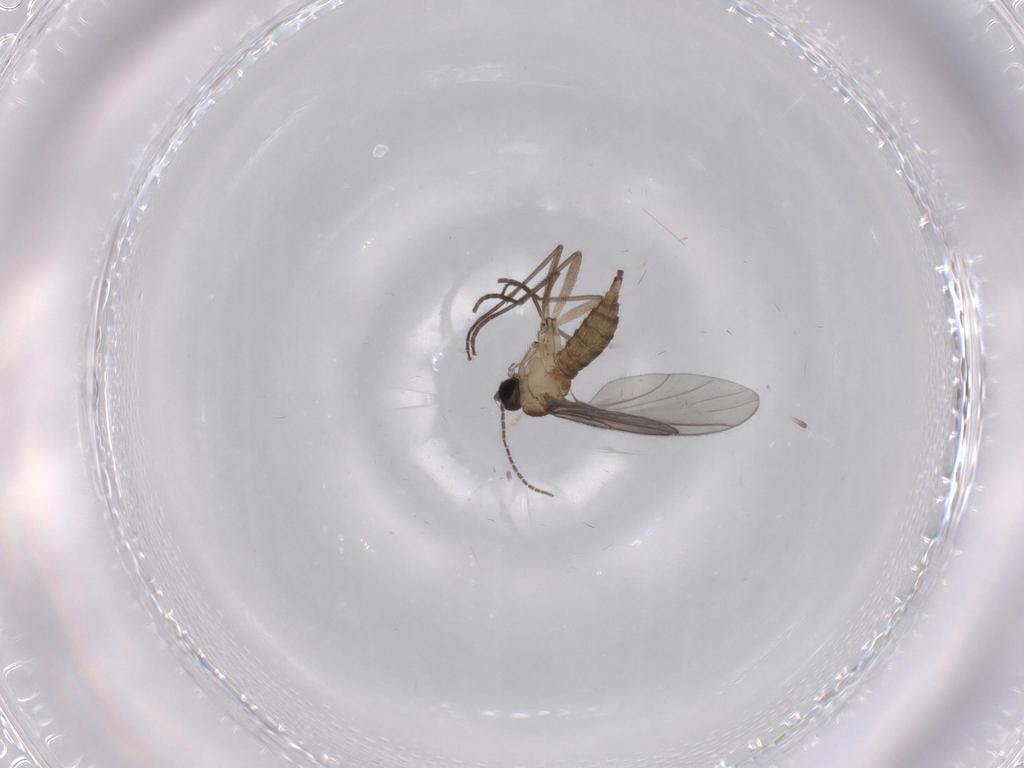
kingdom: Animalia
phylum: Arthropoda
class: Insecta
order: Diptera
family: Sciaridae
